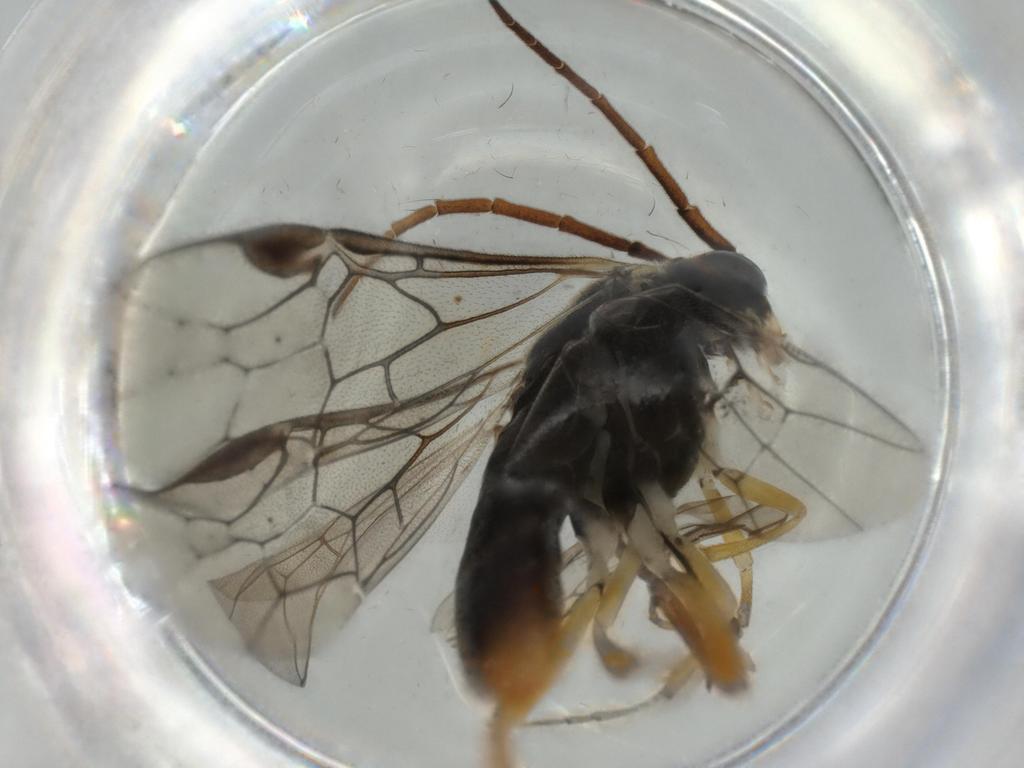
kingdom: Animalia
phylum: Arthropoda
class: Insecta
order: Hymenoptera
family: Tenthredinidae
